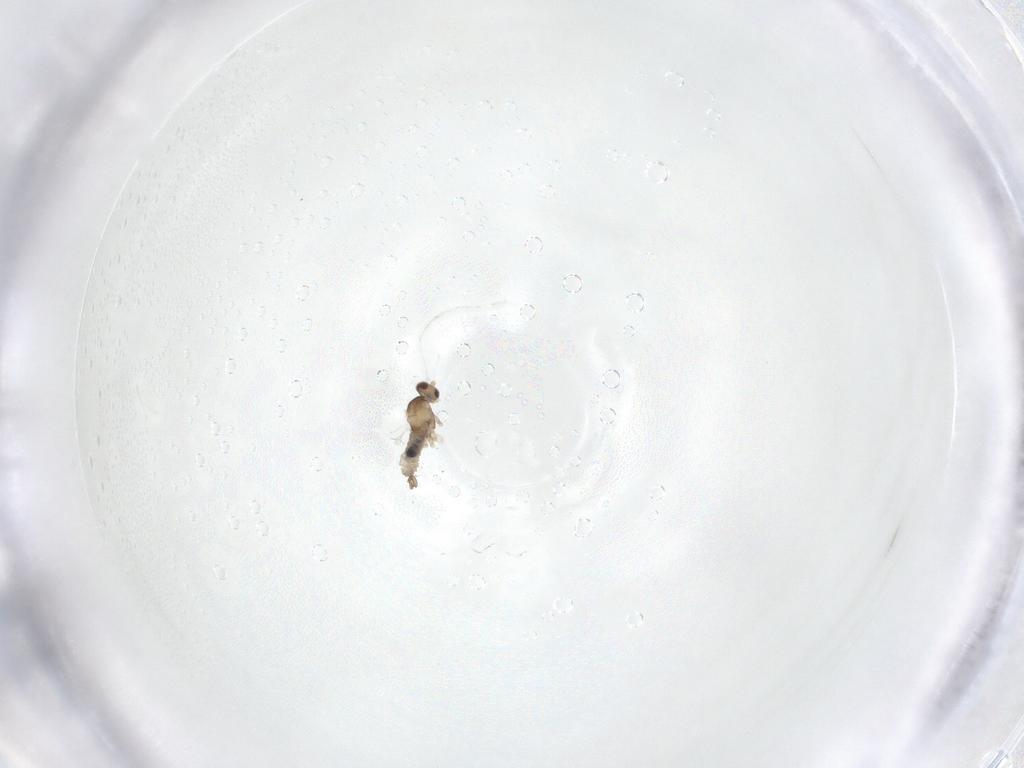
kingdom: Animalia
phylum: Arthropoda
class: Insecta
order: Diptera
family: Cecidomyiidae
